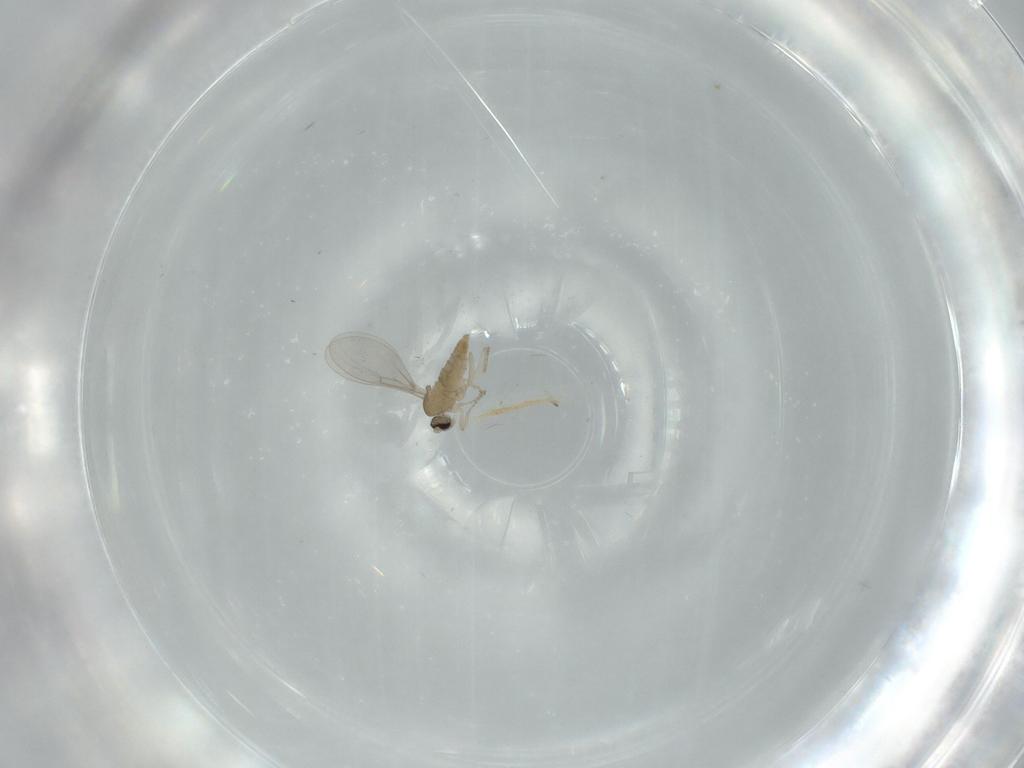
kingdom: Animalia
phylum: Arthropoda
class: Insecta
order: Diptera
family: Cecidomyiidae
